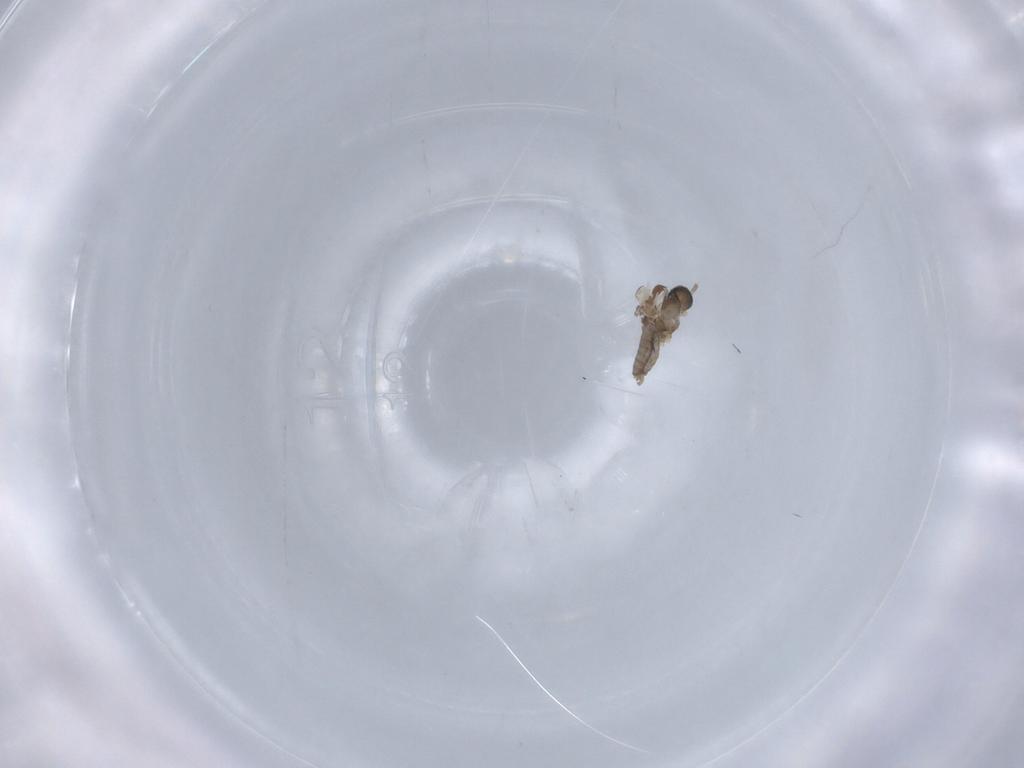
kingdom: Animalia
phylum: Arthropoda
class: Insecta
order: Diptera
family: Cecidomyiidae
